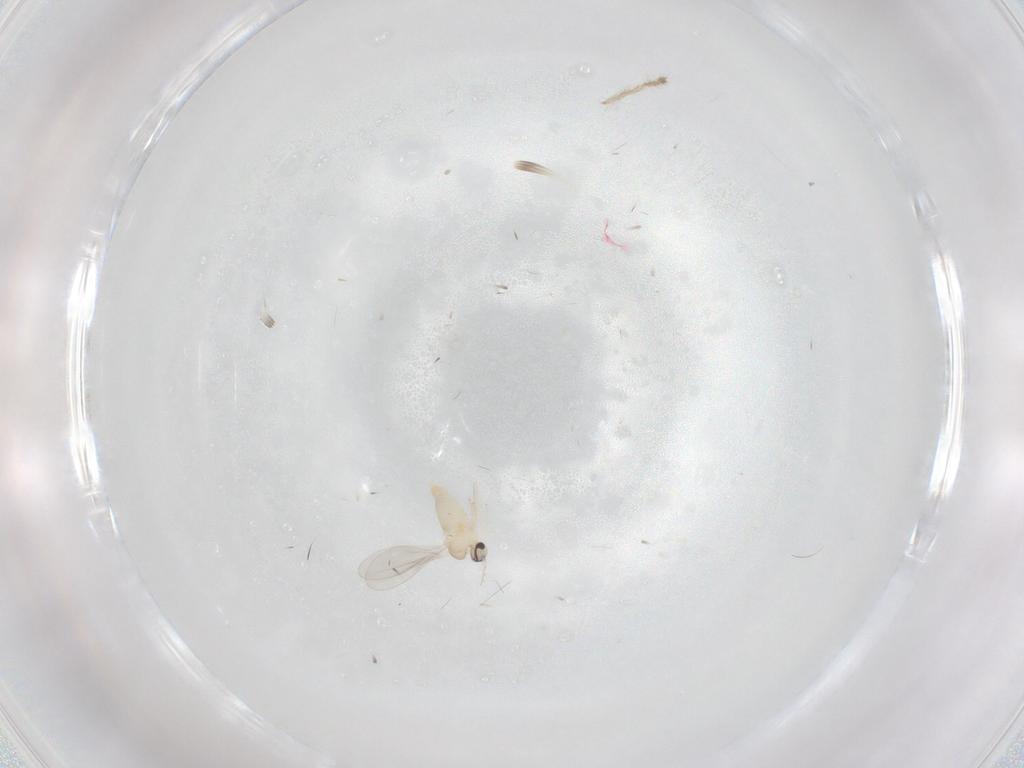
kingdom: Animalia
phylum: Arthropoda
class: Insecta
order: Diptera
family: Cecidomyiidae
